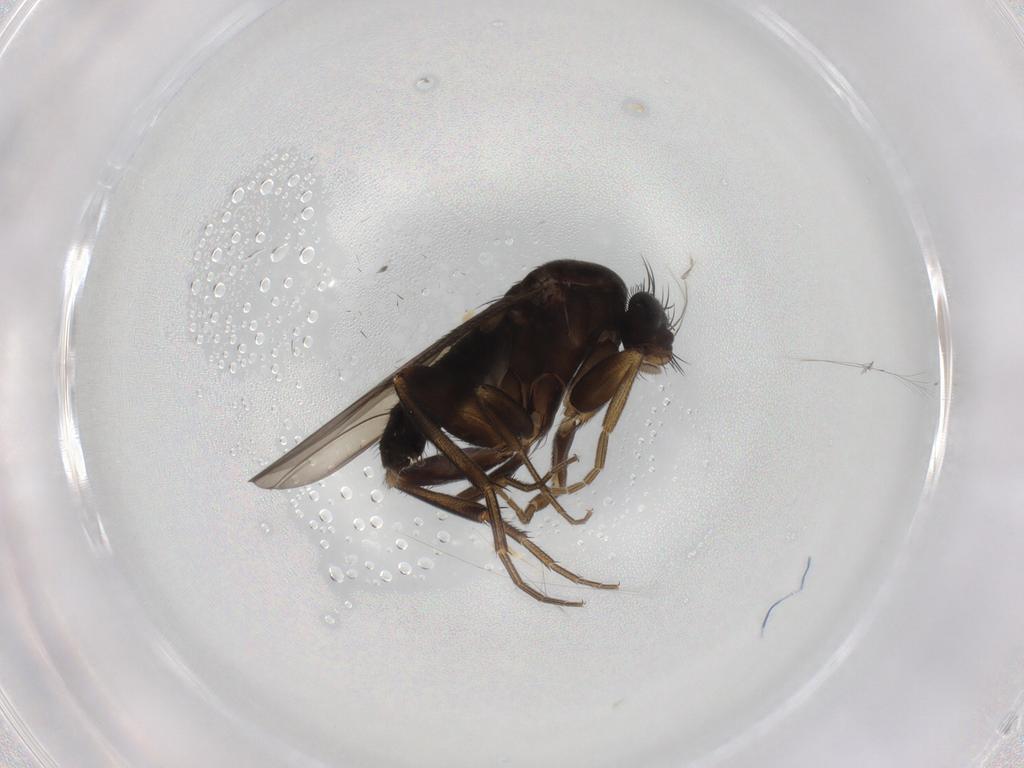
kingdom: Animalia
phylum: Arthropoda
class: Insecta
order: Diptera
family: Phoridae
